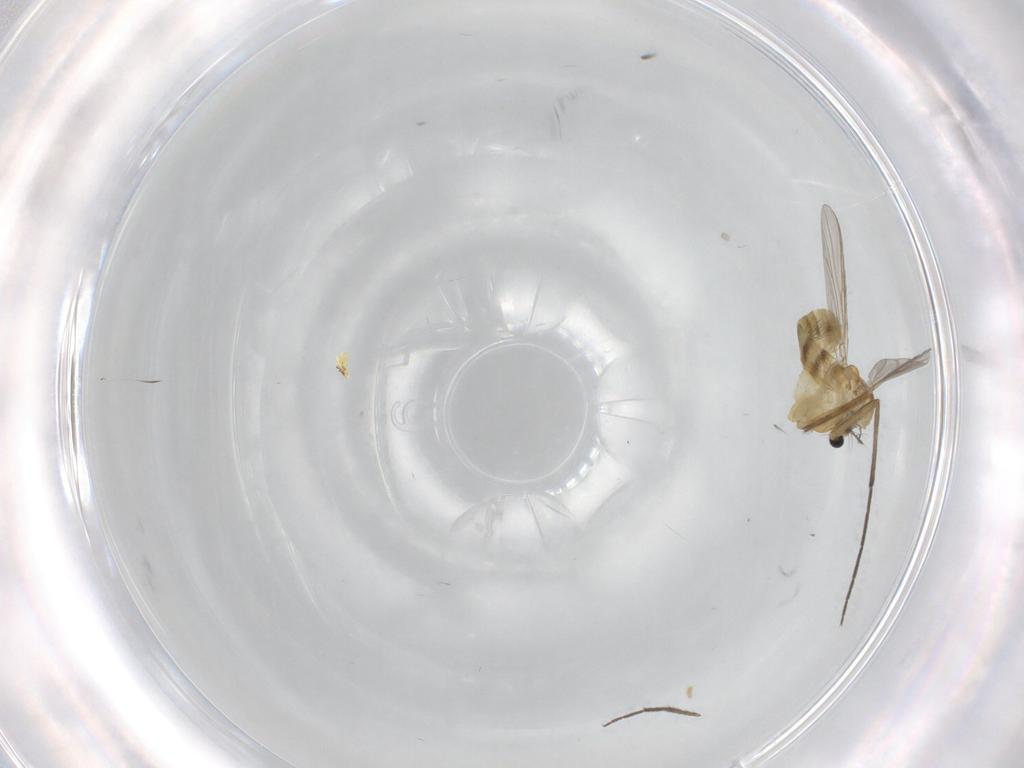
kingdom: Animalia
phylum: Arthropoda
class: Insecta
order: Diptera
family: Chironomidae
